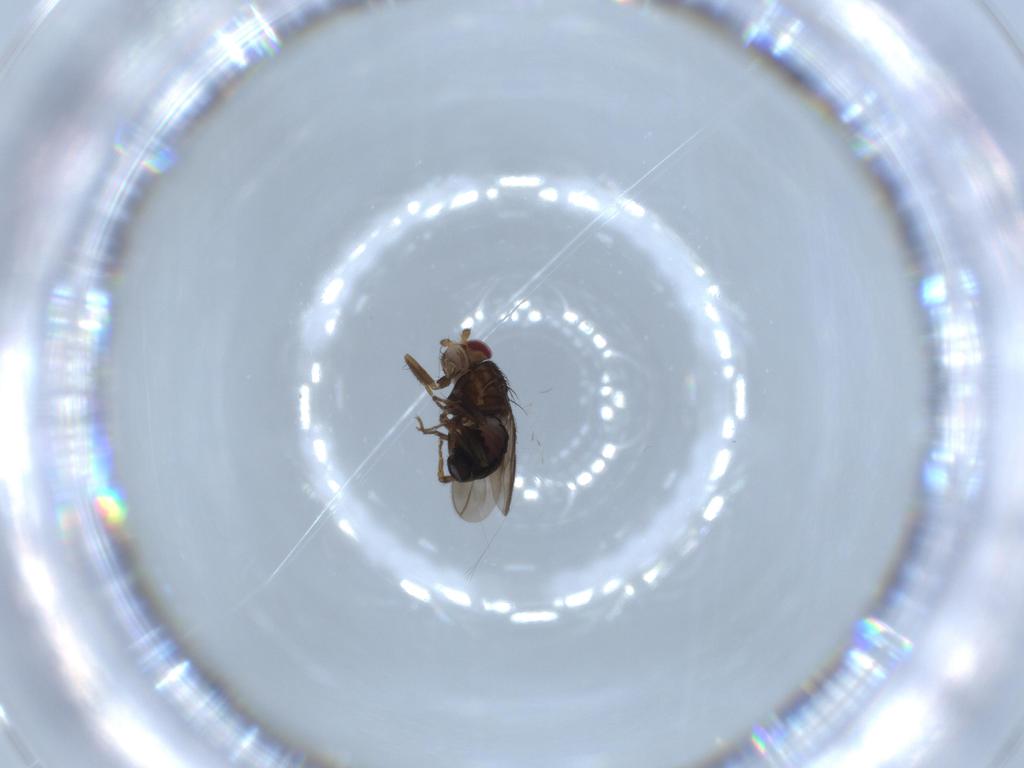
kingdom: Animalia
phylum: Arthropoda
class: Insecta
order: Diptera
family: Sphaeroceridae
